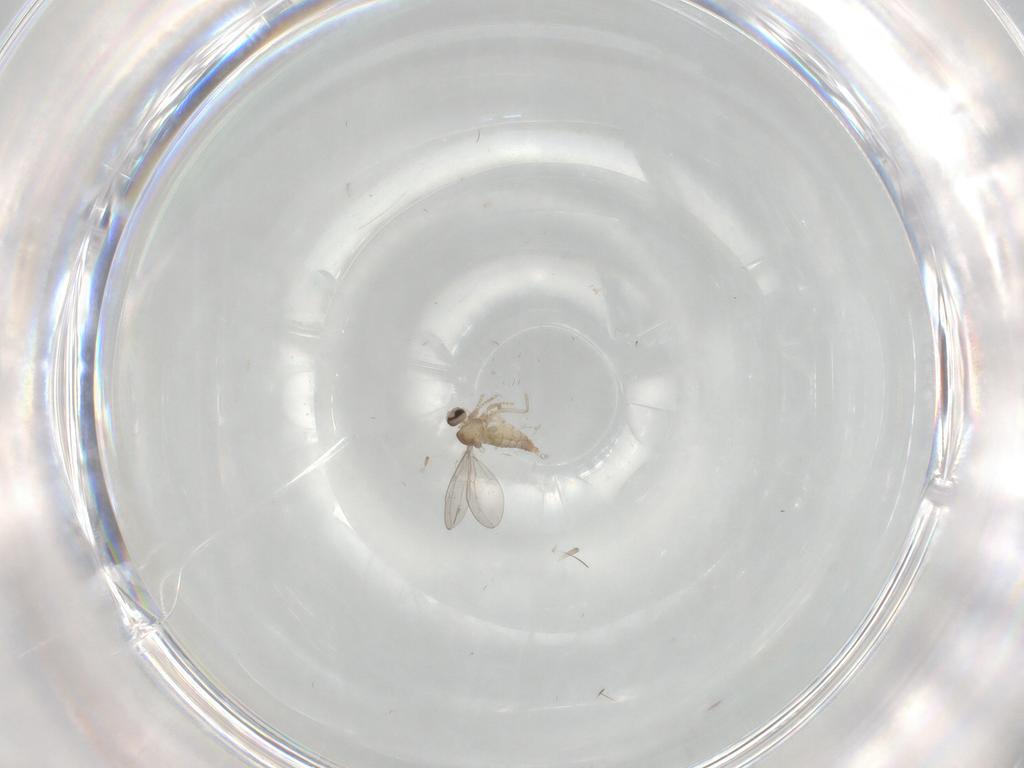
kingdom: Animalia
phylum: Arthropoda
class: Insecta
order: Diptera
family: Cecidomyiidae
